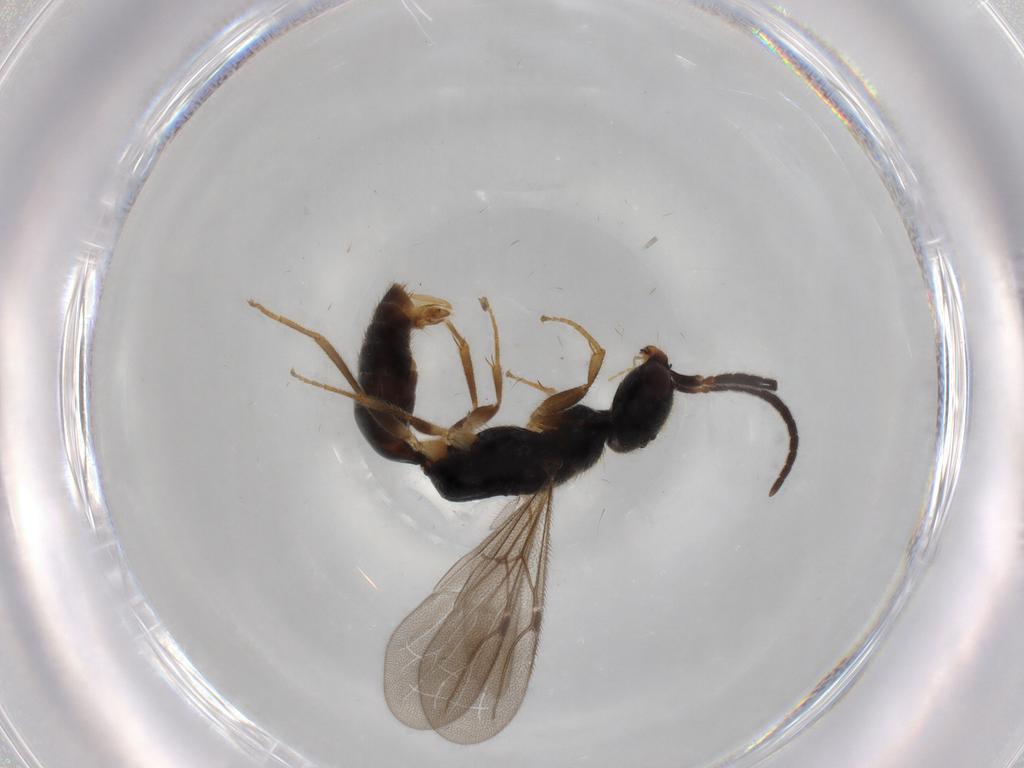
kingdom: Animalia
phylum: Arthropoda
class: Insecta
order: Hymenoptera
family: Bethylidae
